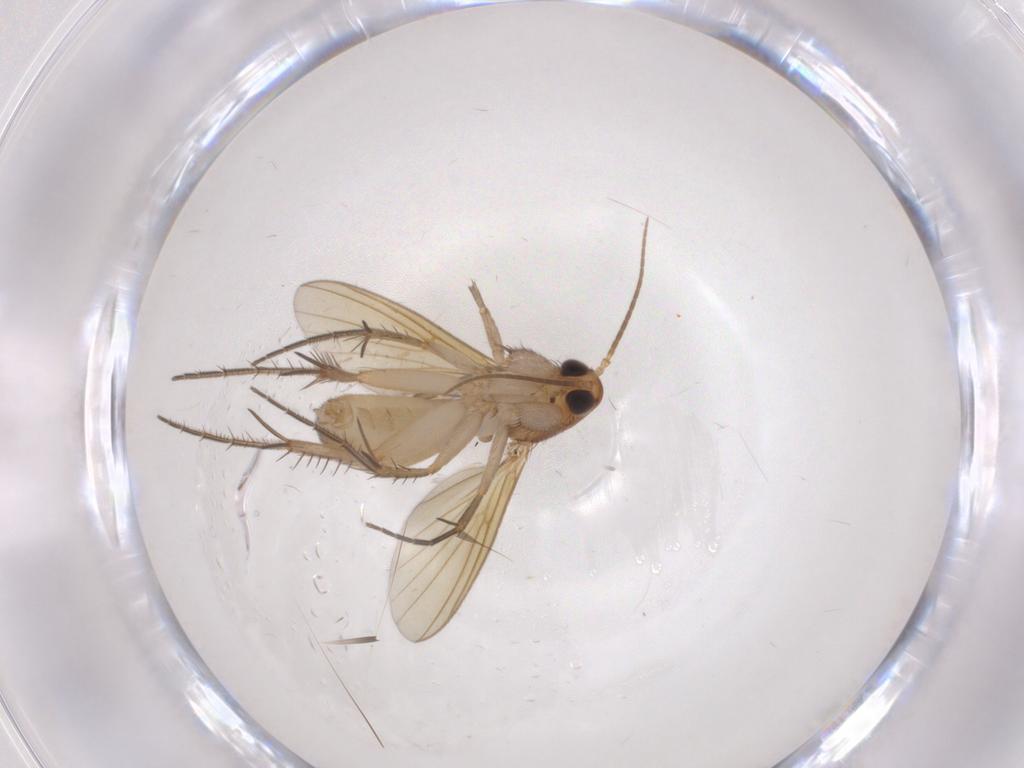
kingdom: Animalia
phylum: Arthropoda
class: Insecta
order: Diptera
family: Mycetophilidae
